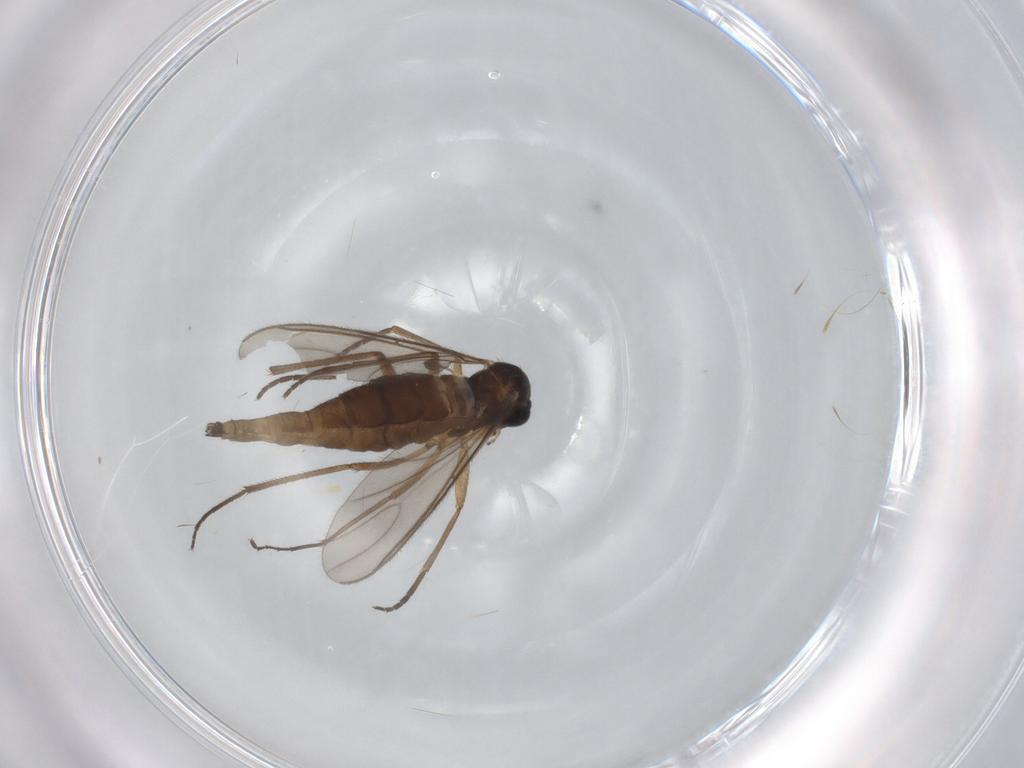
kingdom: Animalia
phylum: Arthropoda
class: Insecta
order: Diptera
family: Sciaridae
